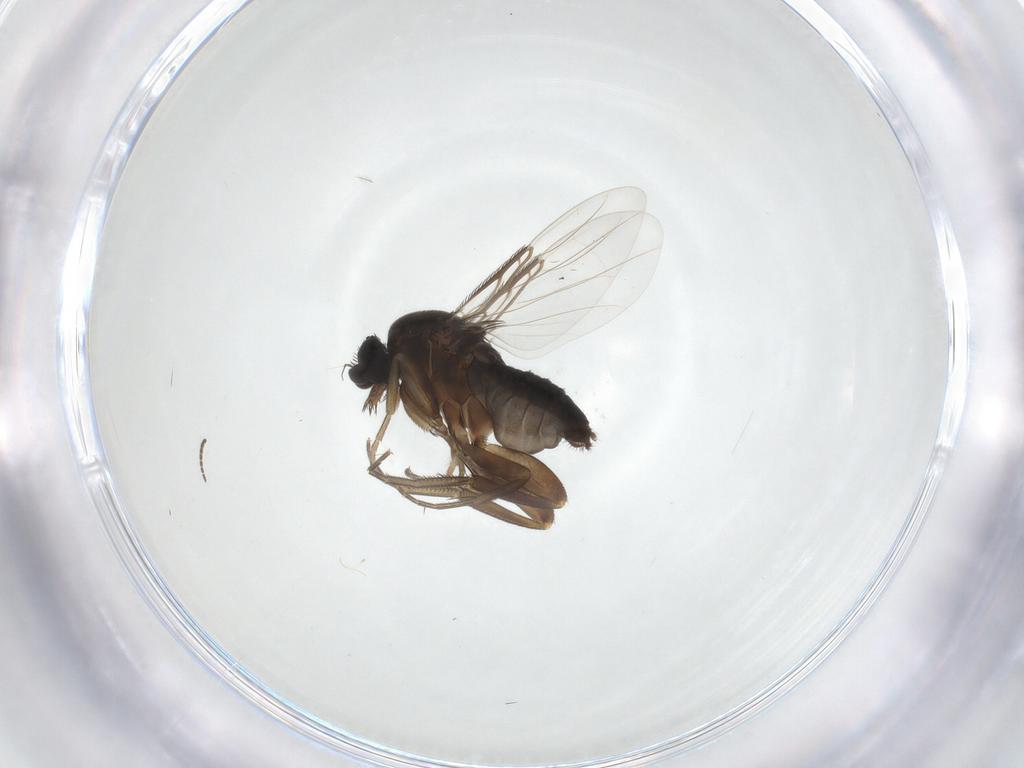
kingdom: Animalia
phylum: Arthropoda
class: Insecta
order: Diptera
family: Phoridae
